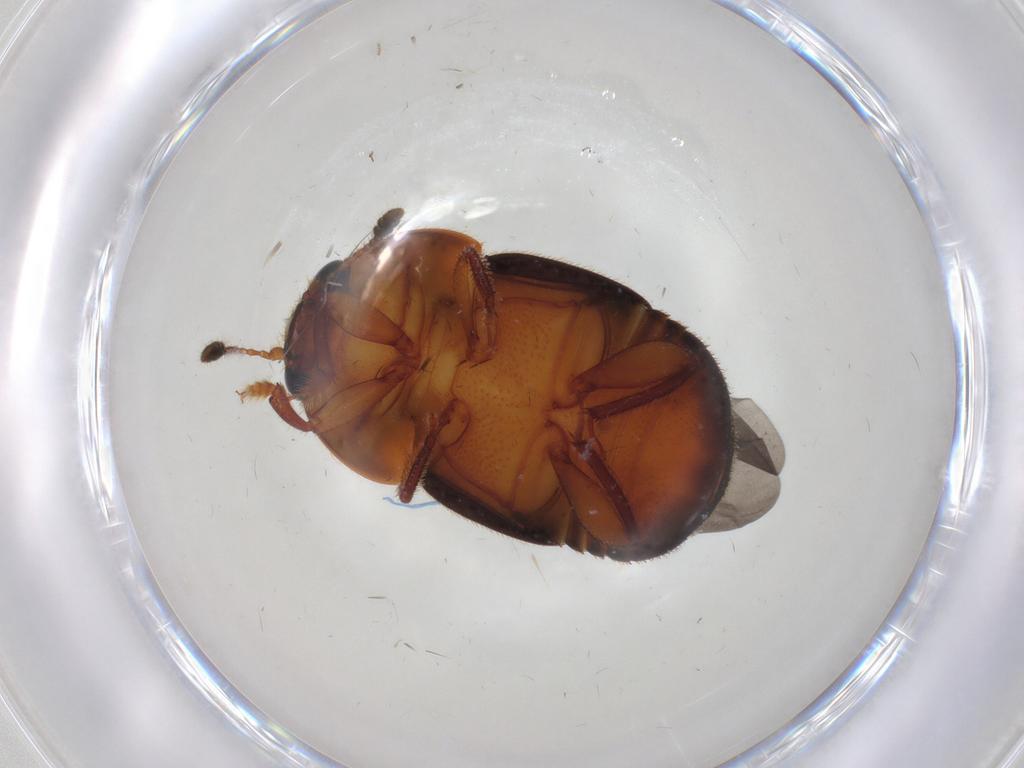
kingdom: Animalia
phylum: Arthropoda
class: Insecta
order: Coleoptera
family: Nitidulidae
